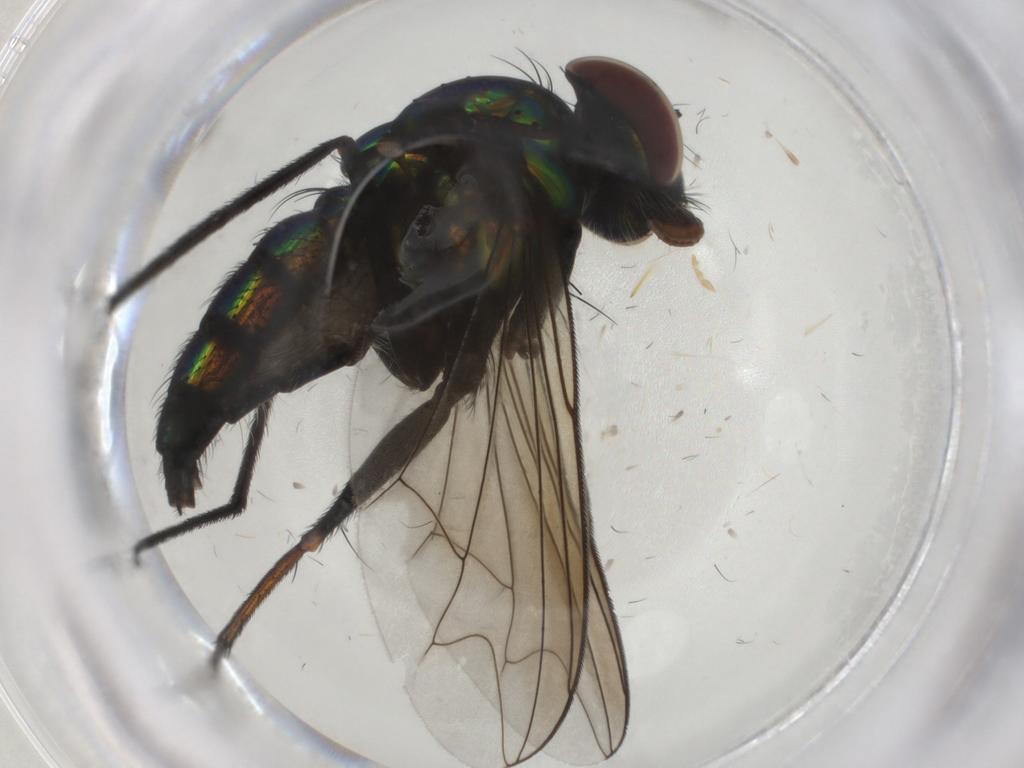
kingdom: Animalia
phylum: Arthropoda
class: Insecta
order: Diptera
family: Dolichopodidae
